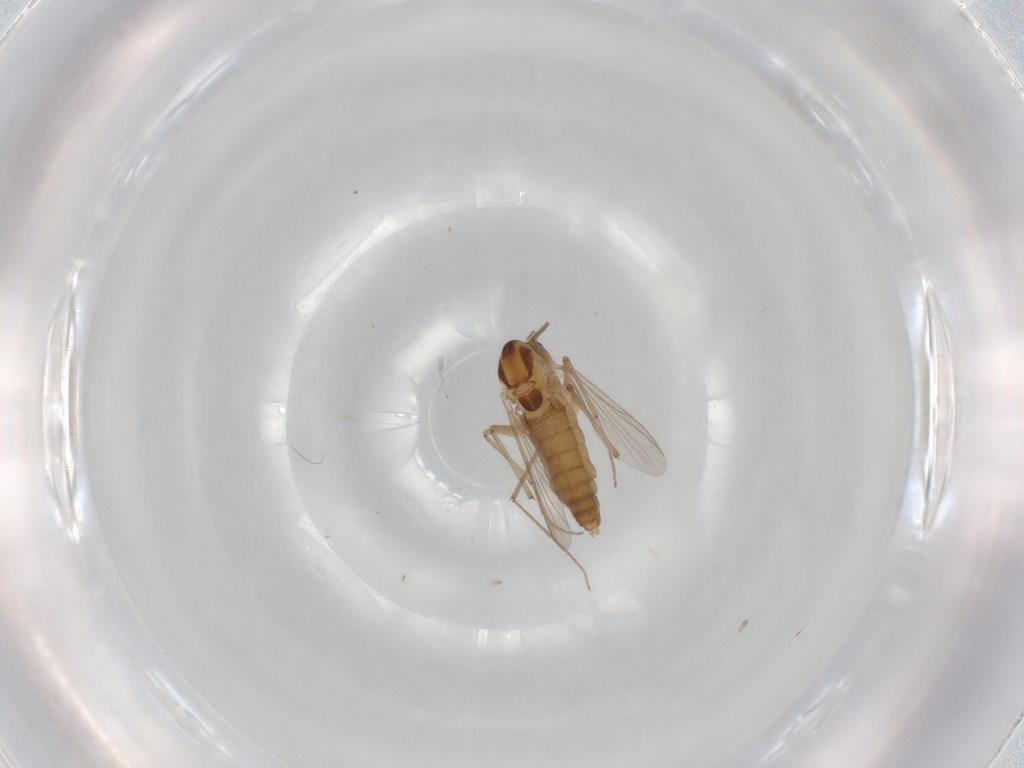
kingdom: Animalia
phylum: Arthropoda
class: Insecta
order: Diptera
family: Chironomidae
